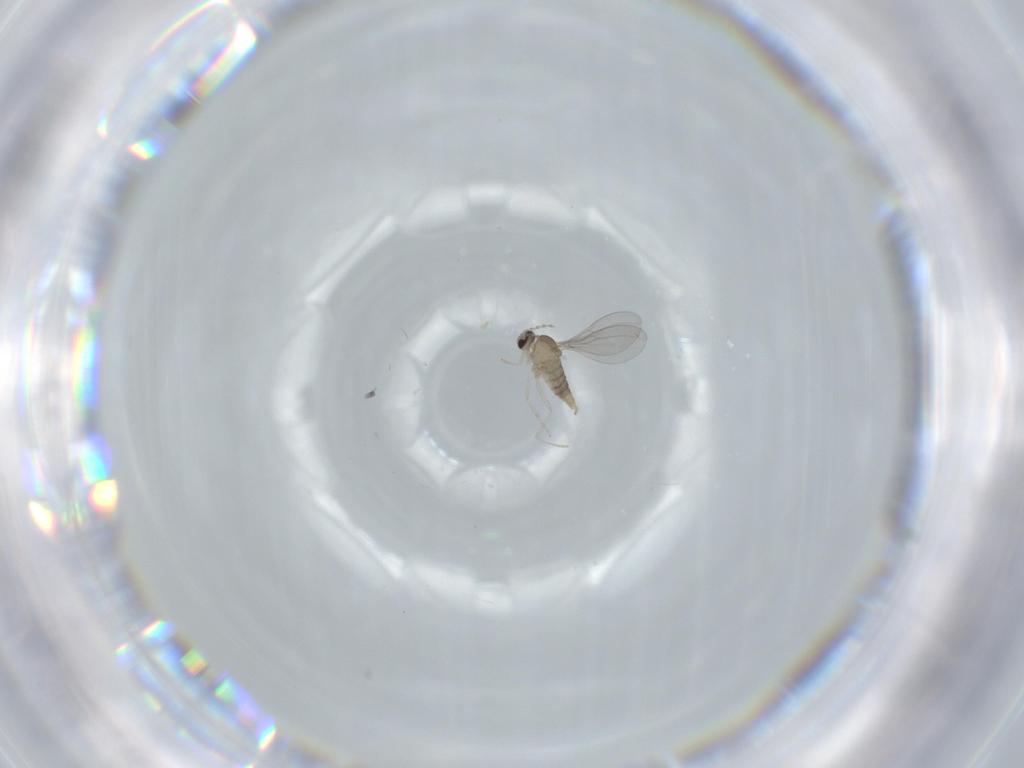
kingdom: Animalia
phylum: Arthropoda
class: Insecta
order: Diptera
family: Cecidomyiidae
